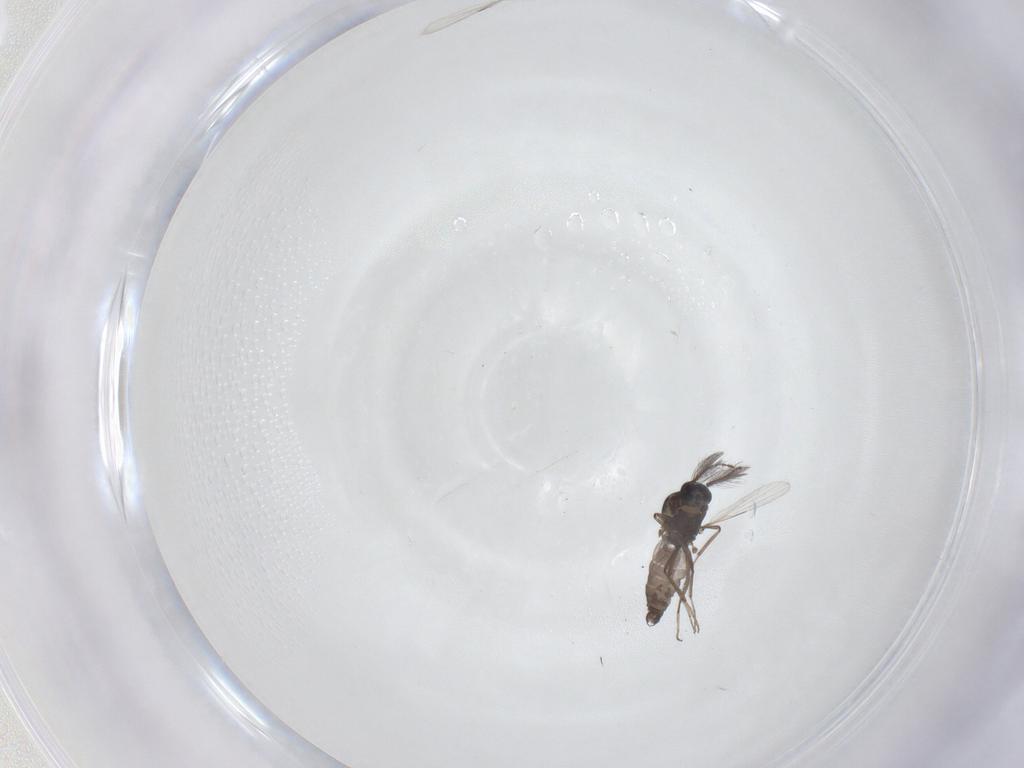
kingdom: Animalia
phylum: Arthropoda
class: Insecta
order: Diptera
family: Ceratopogonidae
